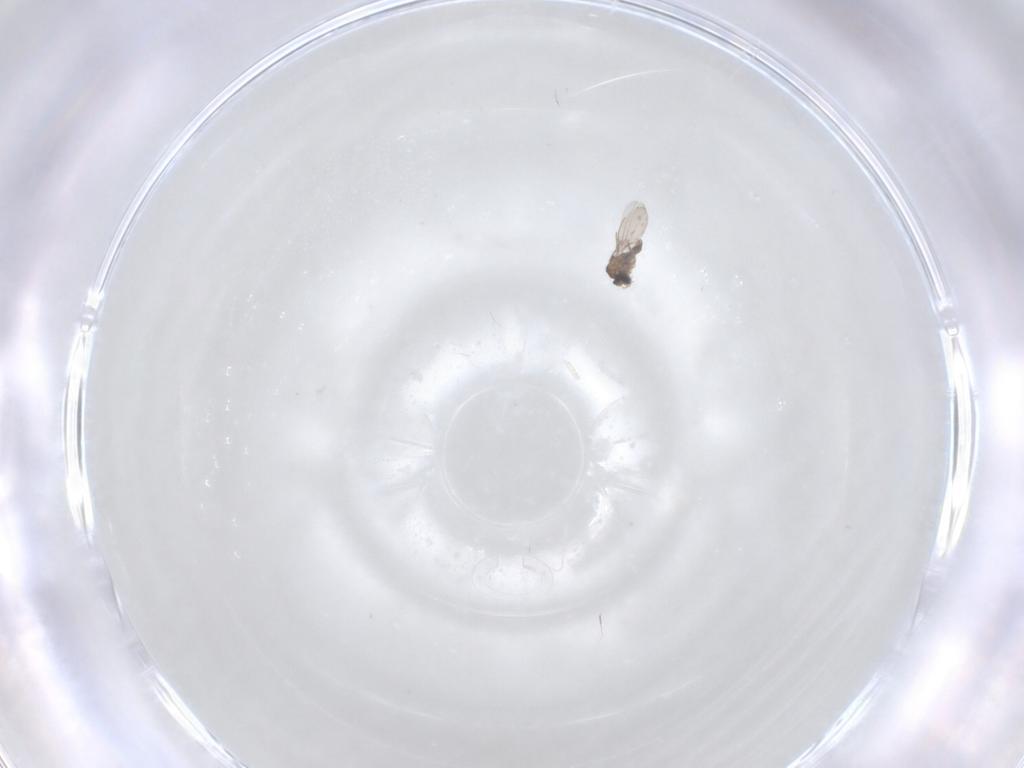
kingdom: Animalia
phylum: Arthropoda
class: Insecta
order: Diptera
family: Cecidomyiidae
